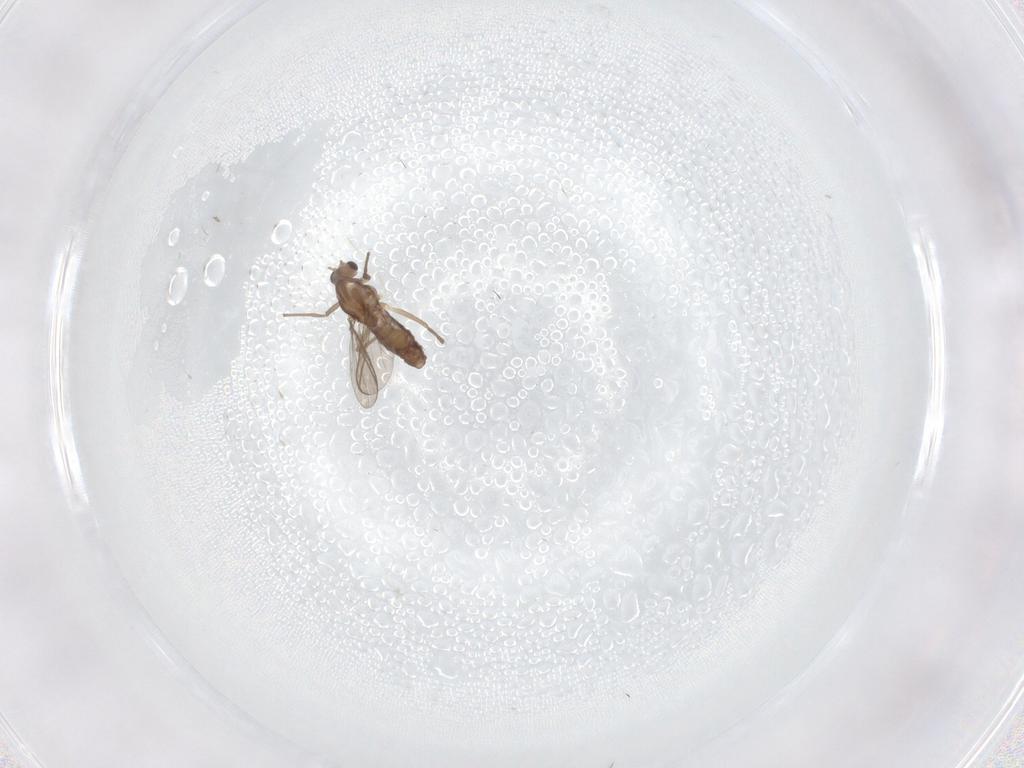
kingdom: Animalia
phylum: Arthropoda
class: Insecta
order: Diptera
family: Chironomidae
